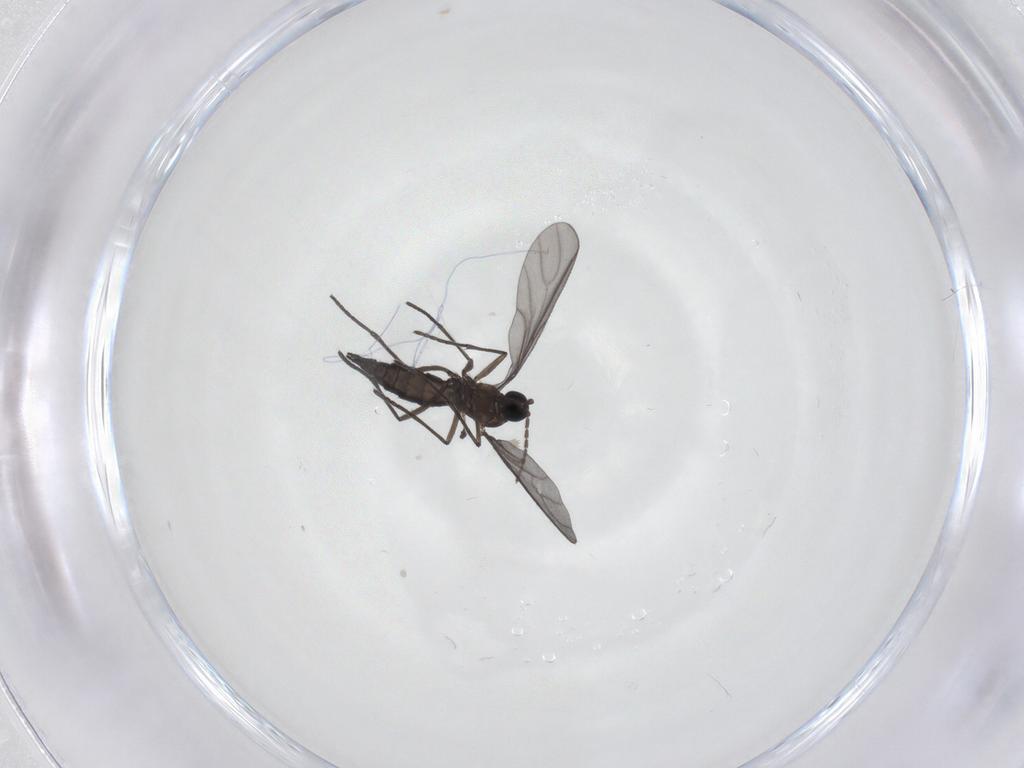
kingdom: Animalia
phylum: Arthropoda
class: Insecta
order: Diptera
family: Sciaridae
